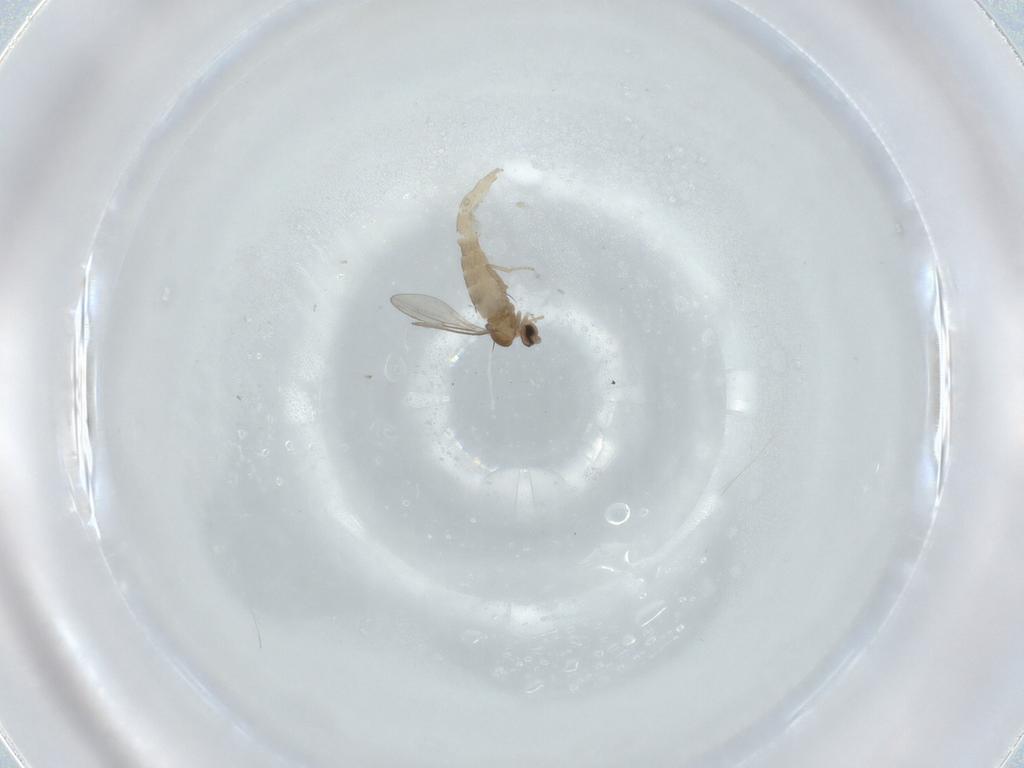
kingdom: Animalia
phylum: Arthropoda
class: Insecta
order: Diptera
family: Cecidomyiidae
